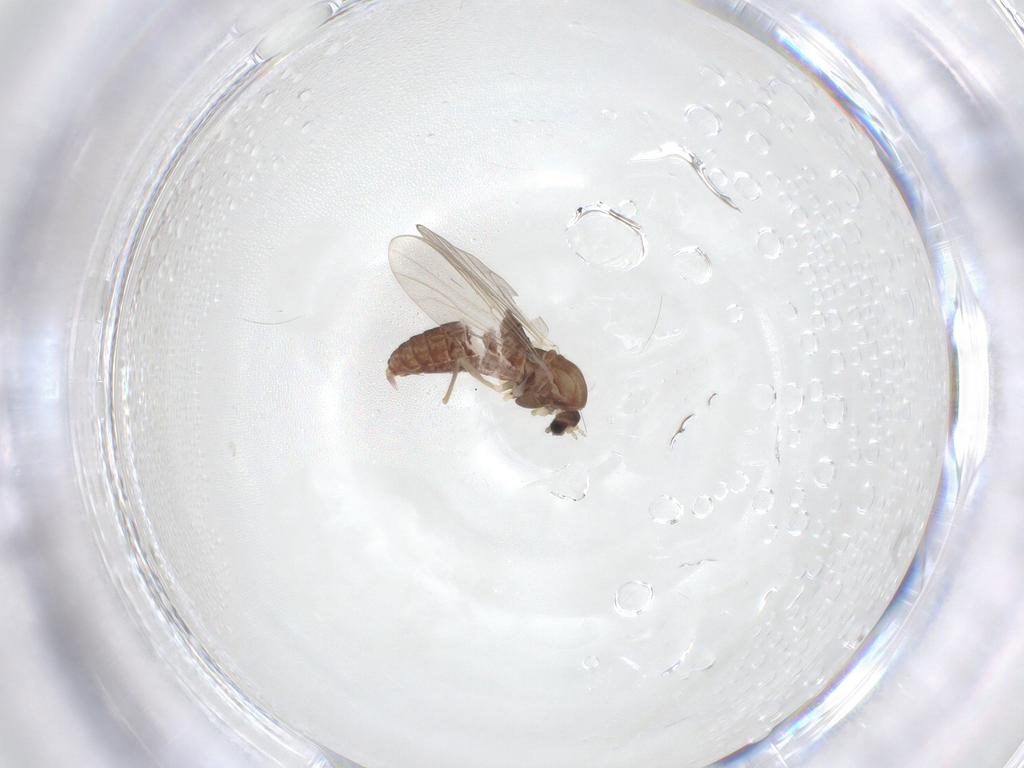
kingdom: Animalia
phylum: Arthropoda
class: Insecta
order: Diptera
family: Chironomidae
